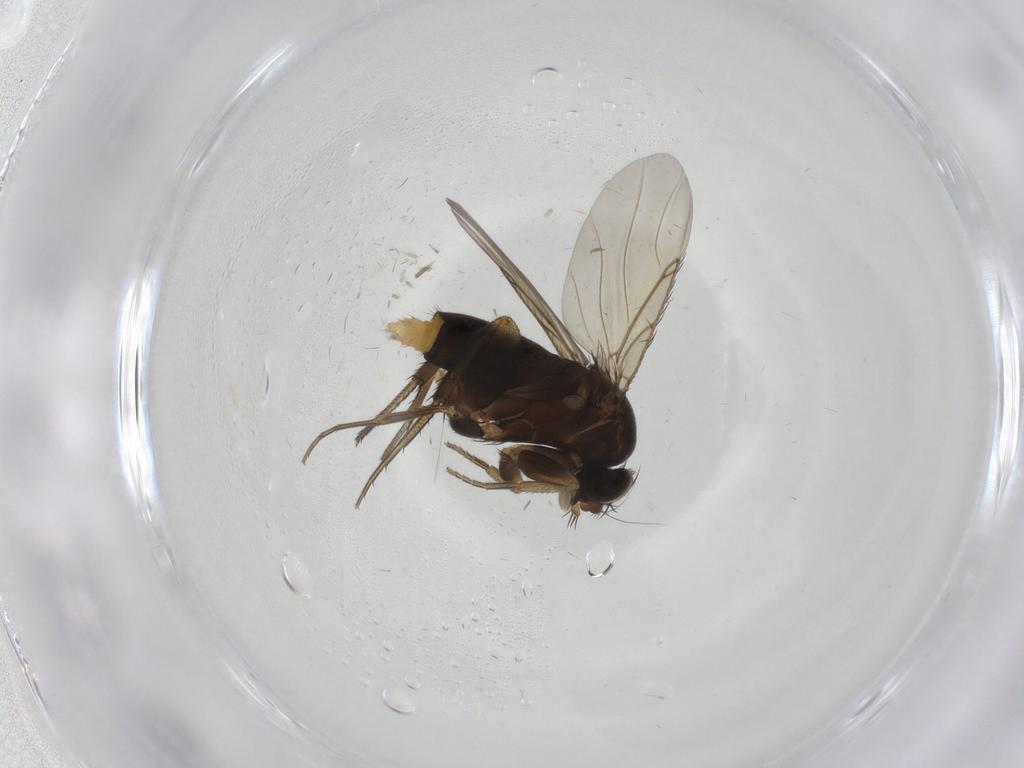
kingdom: Animalia
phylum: Arthropoda
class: Insecta
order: Diptera
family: Phoridae
